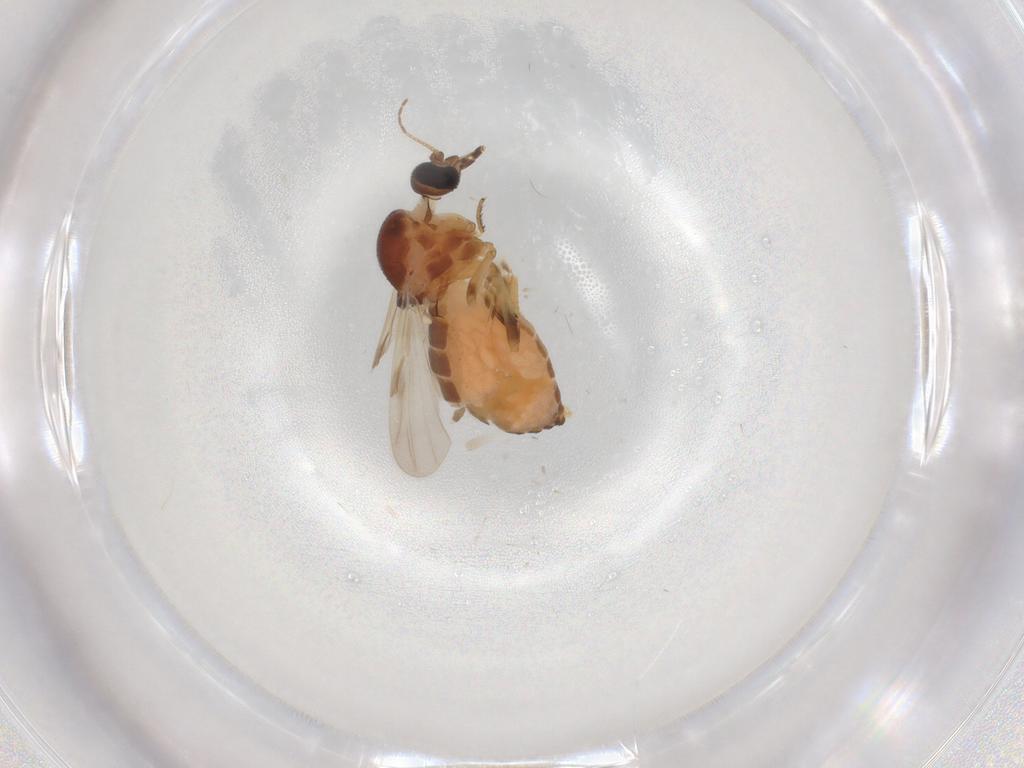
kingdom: Animalia
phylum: Arthropoda
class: Insecta
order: Diptera
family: Ceratopogonidae
